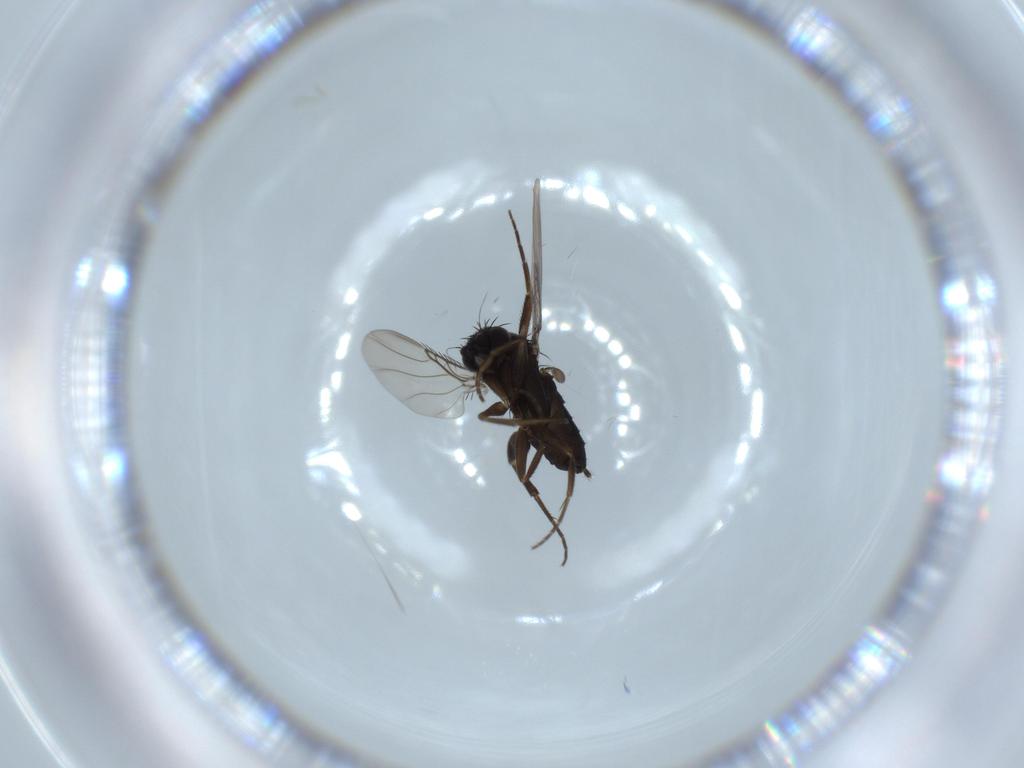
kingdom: Animalia
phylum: Arthropoda
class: Insecta
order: Diptera
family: Phoridae
